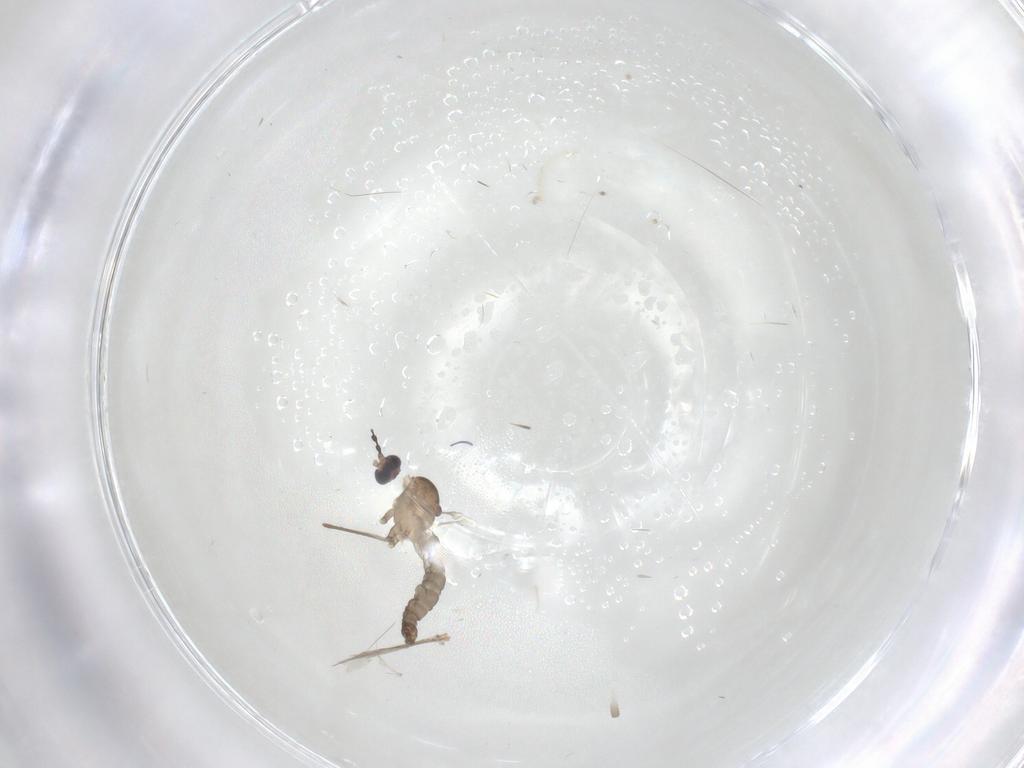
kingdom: Animalia
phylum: Arthropoda
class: Insecta
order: Diptera
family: Cecidomyiidae
